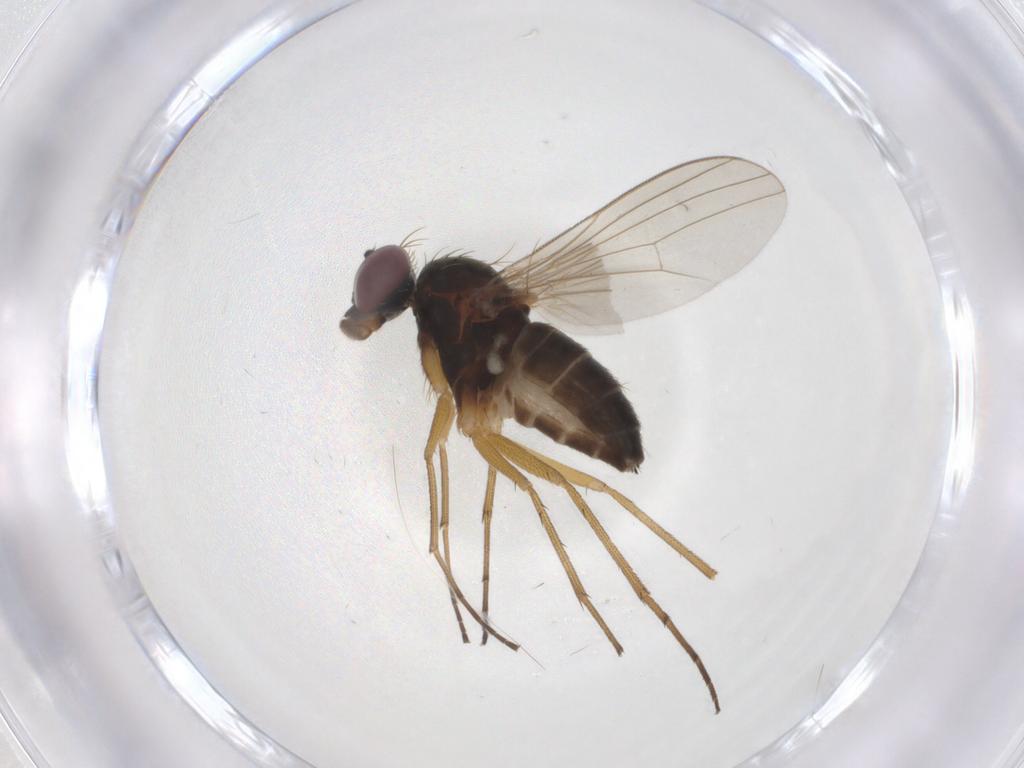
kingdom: Animalia
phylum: Arthropoda
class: Insecta
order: Diptera
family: Dolichopodidae
